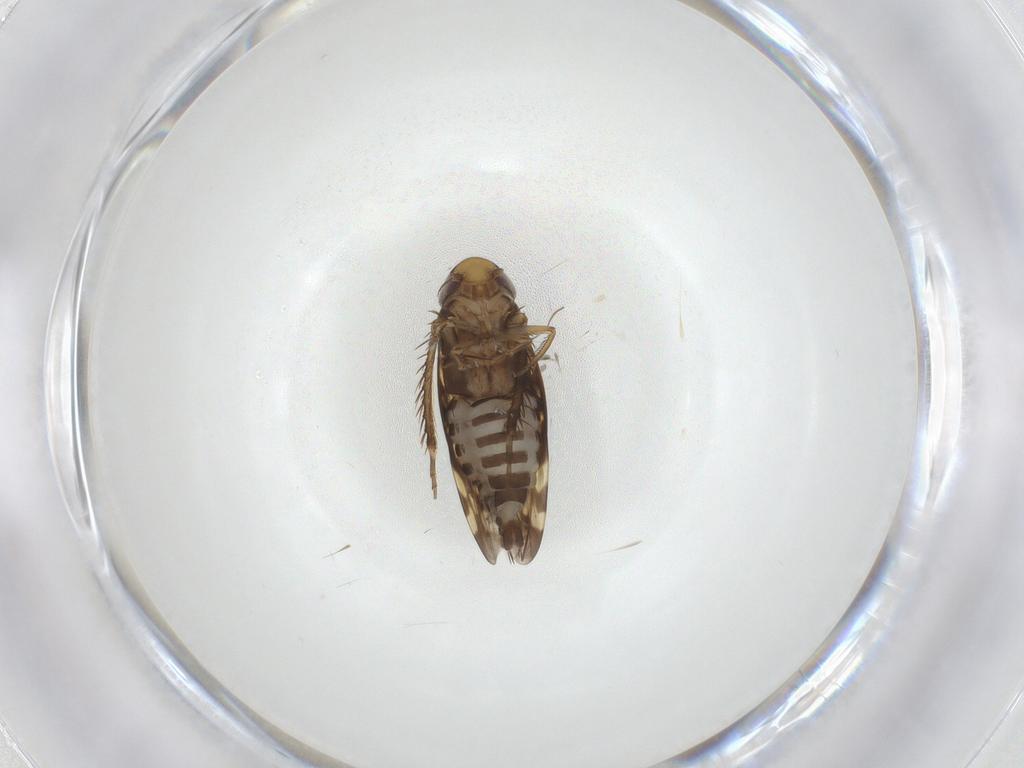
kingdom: Animalia
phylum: Arthropoda
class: Insecta
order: Hemiptera
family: Cicadellidae
